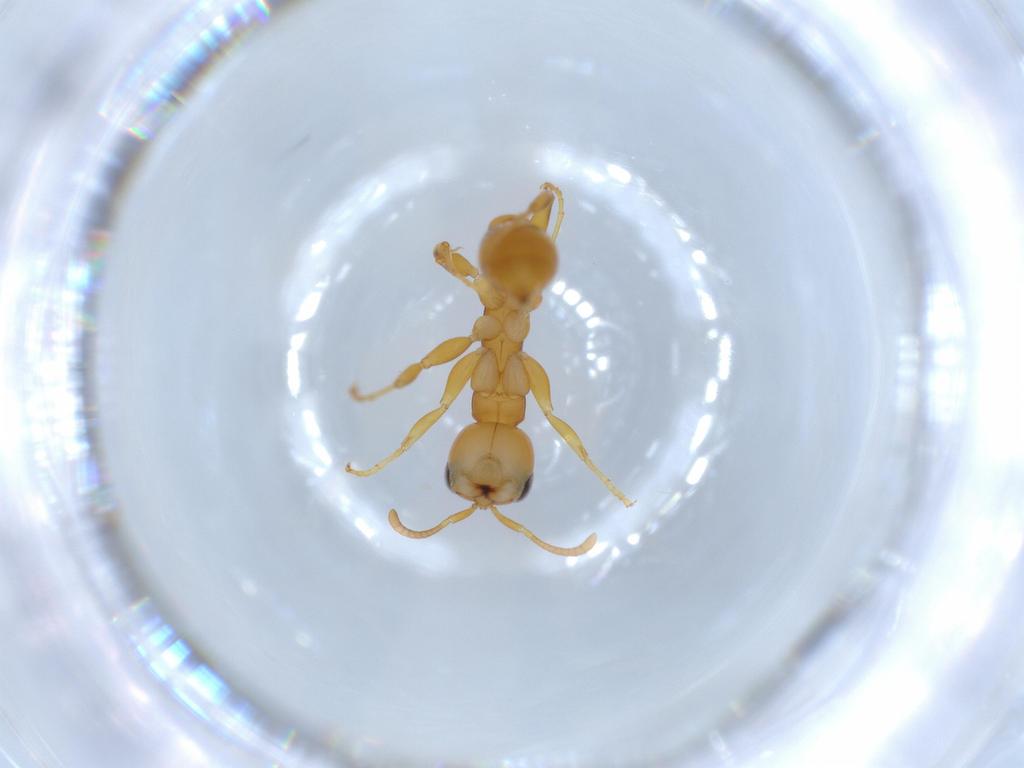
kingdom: Animalia
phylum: Arthropoda
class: Insecta
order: Hymenoptera
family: Formicidae
